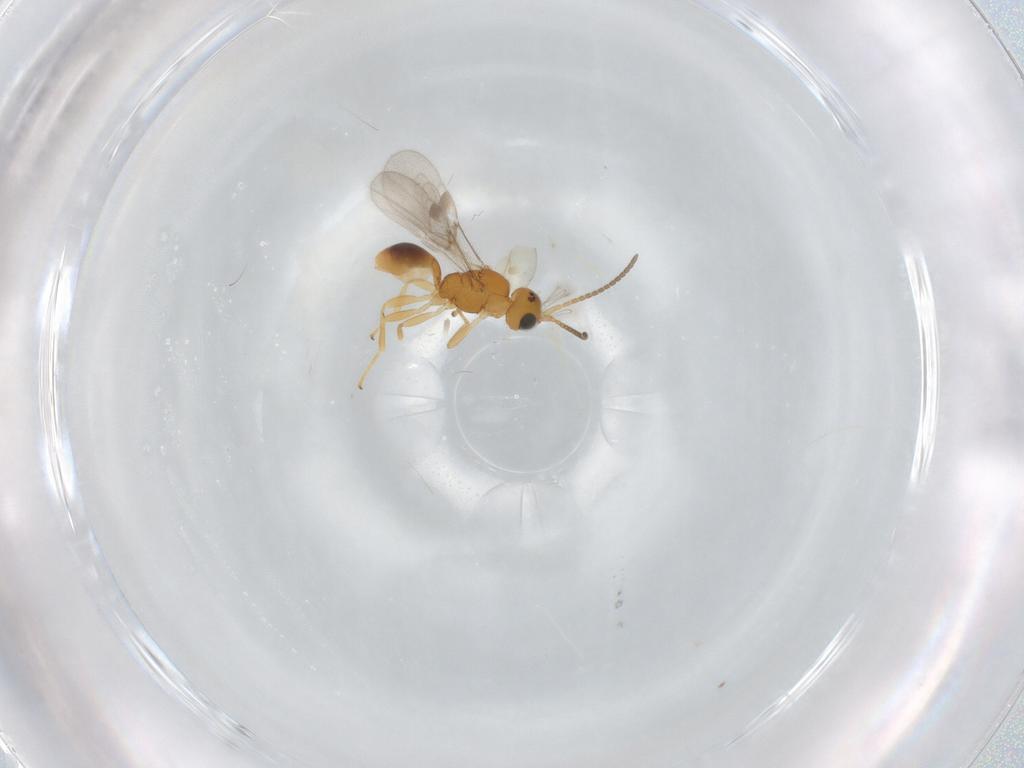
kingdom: Animalia
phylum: Arthropoda
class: Insecta
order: Hymenoptera
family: Braconidae
